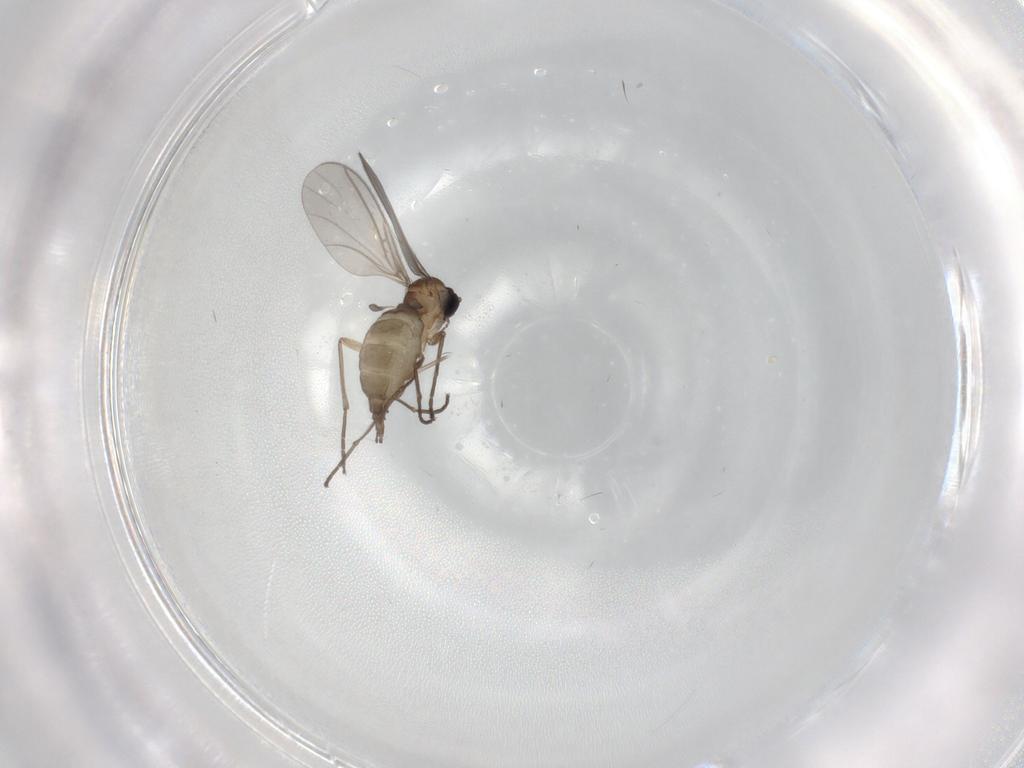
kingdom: Animalia
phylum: Arthropoda
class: Insecta
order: Diptera
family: Sciaridae
